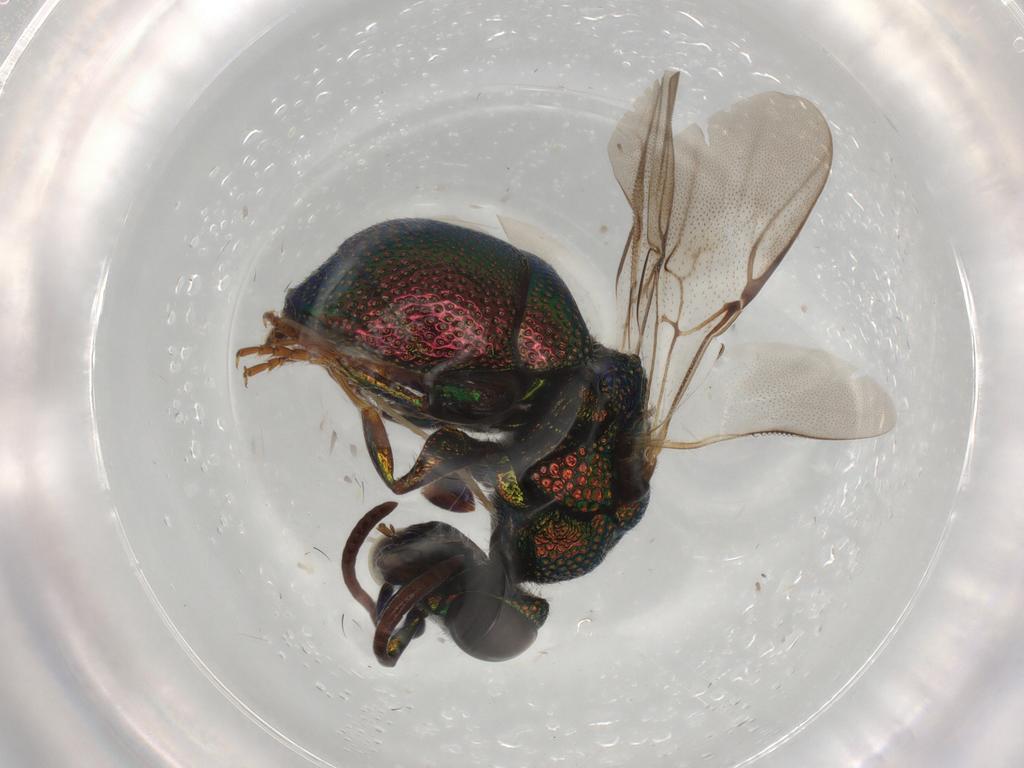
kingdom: Animalia
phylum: Arthropoda
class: Insecta
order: Hymenoptera
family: Chrysididae
